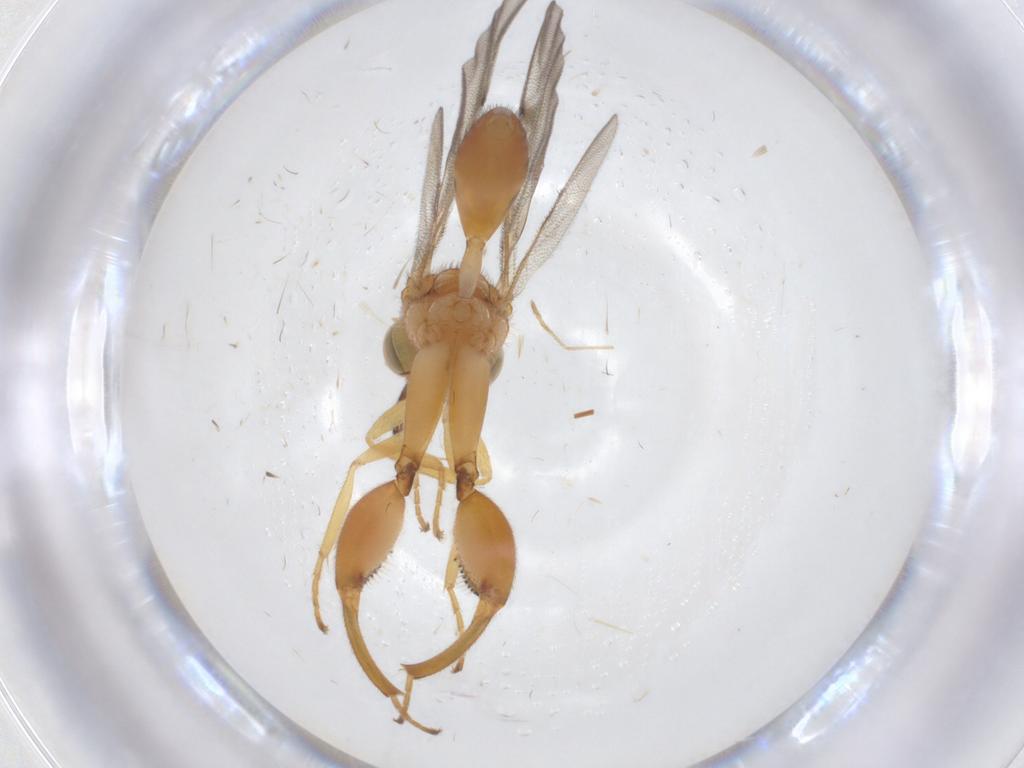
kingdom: Animalia
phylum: Arthropoda
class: Insecta
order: Hymenoptera
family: Chalcididae
